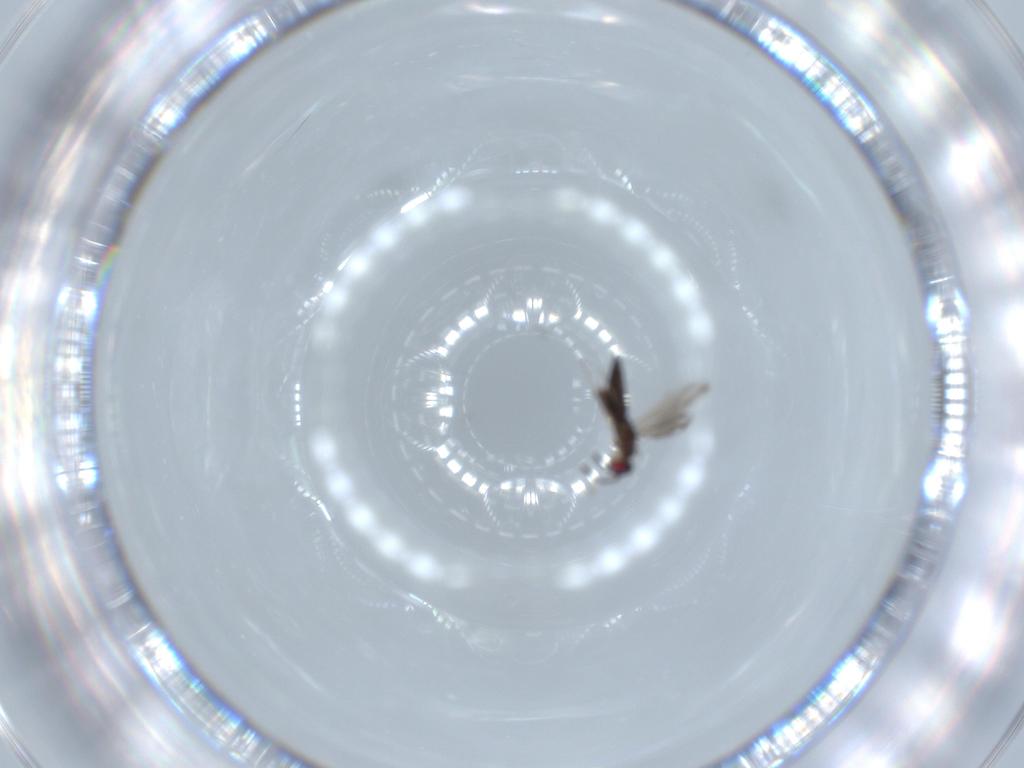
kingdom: Animalia
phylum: Arthropoda
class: Insecta
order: Hymenoptera
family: Pteromalidae
